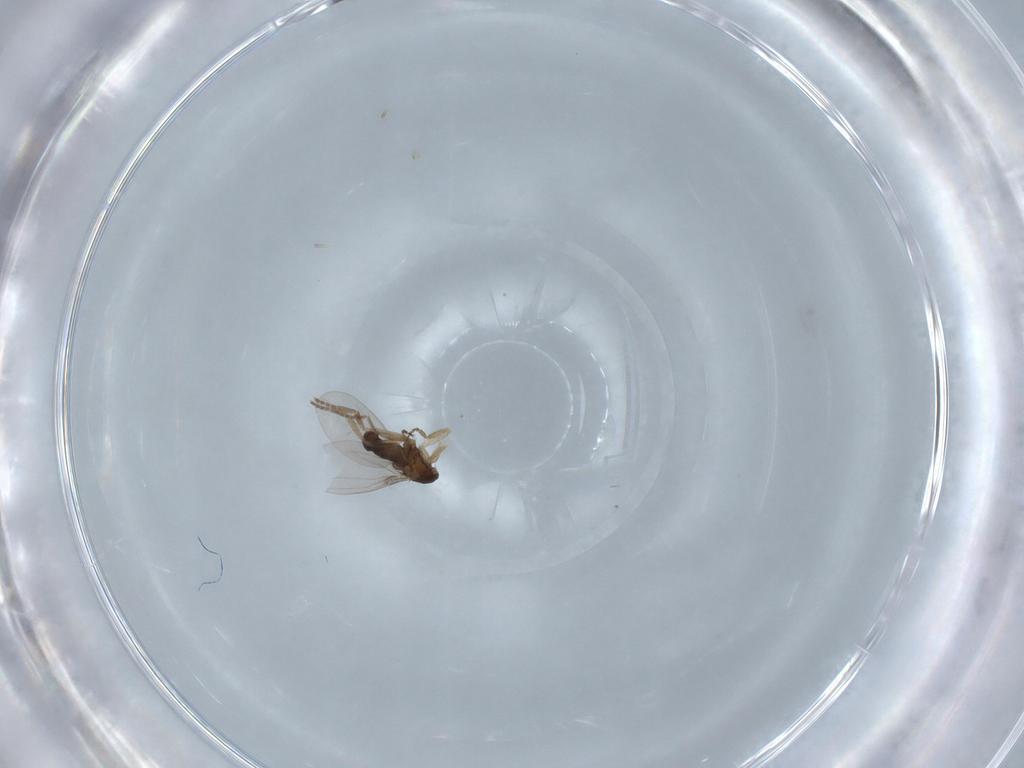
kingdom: Animalia
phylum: Arthropoda
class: Insecta
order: Diptera
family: Phoridae
